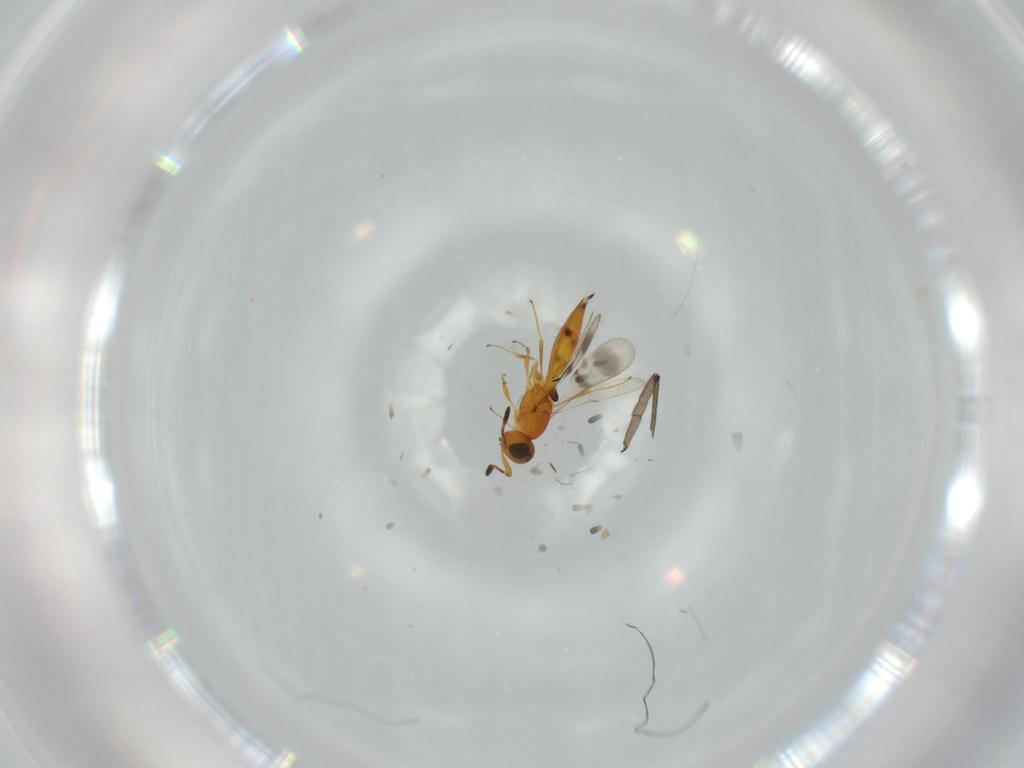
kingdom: Animalia
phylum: Arthropoda
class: Insecta
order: Hymenoptera
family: Scelionidae
